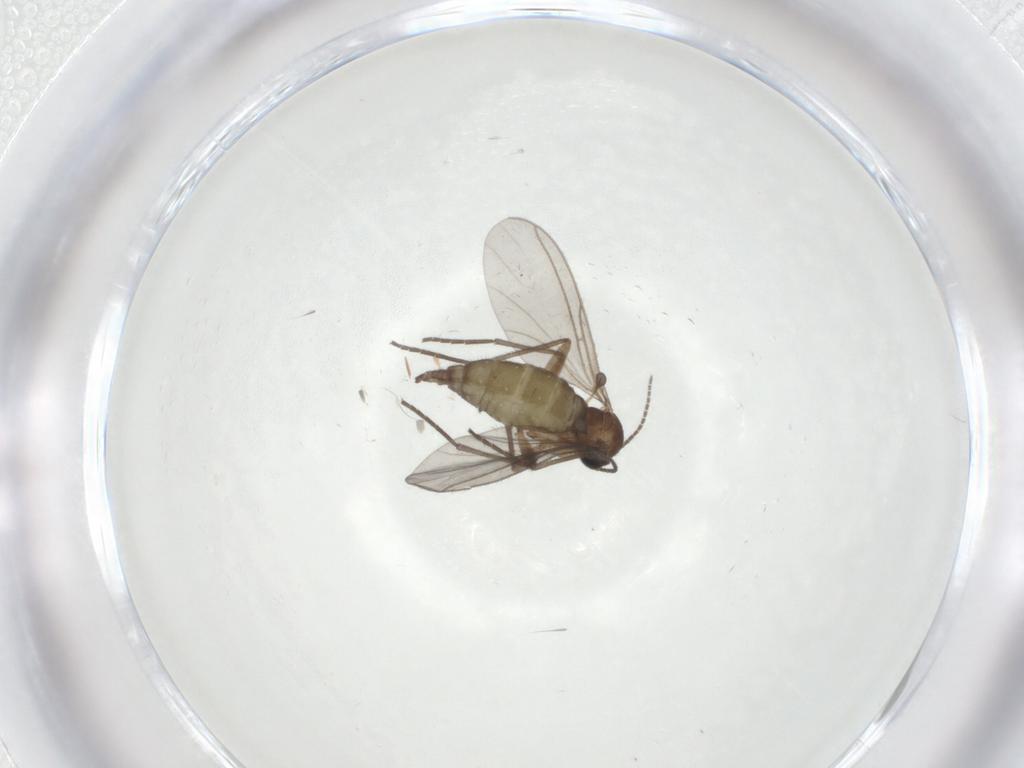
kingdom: Animalia
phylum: Arthropoda
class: Insecta
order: Diptera
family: Sciaridae
